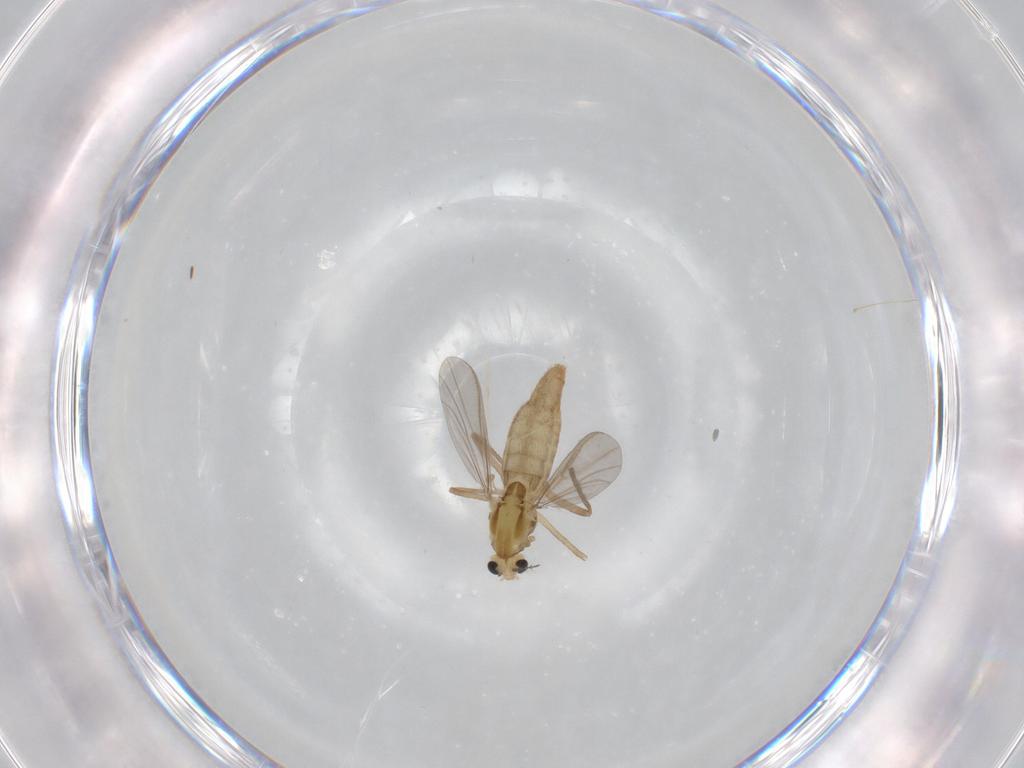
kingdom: Animalia
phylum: Arthropoda
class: Insecta
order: Diptera
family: Chironomidae
